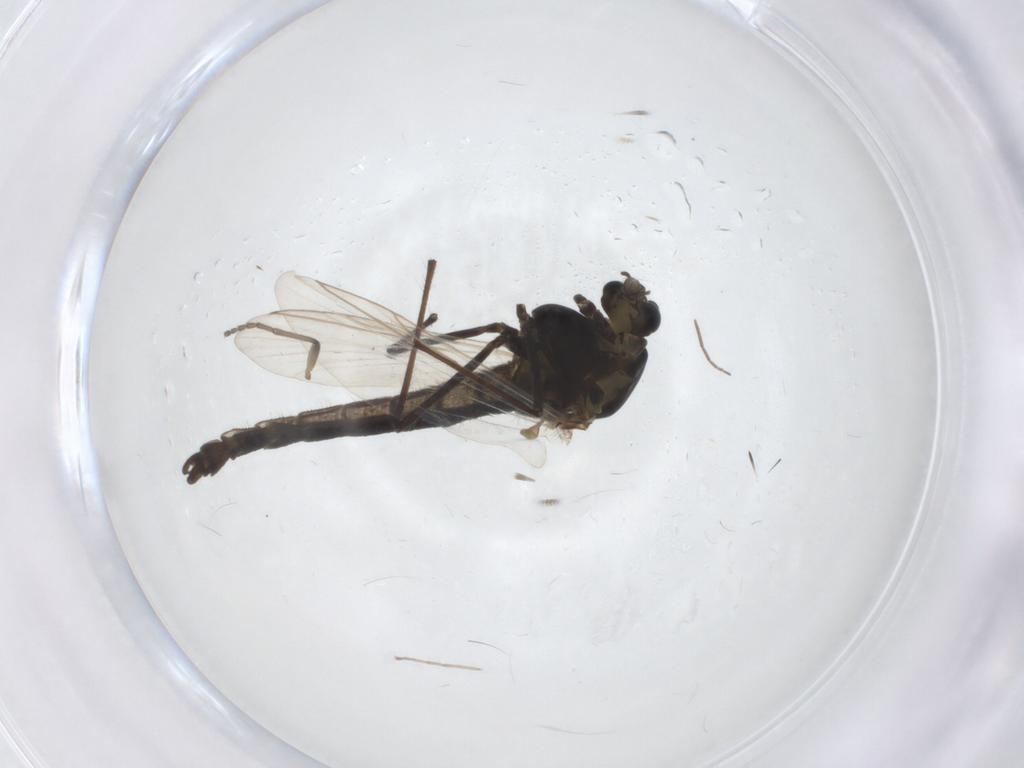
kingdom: Animalia
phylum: Arthropoda
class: Insecta
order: Diptera
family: Chironomidae
